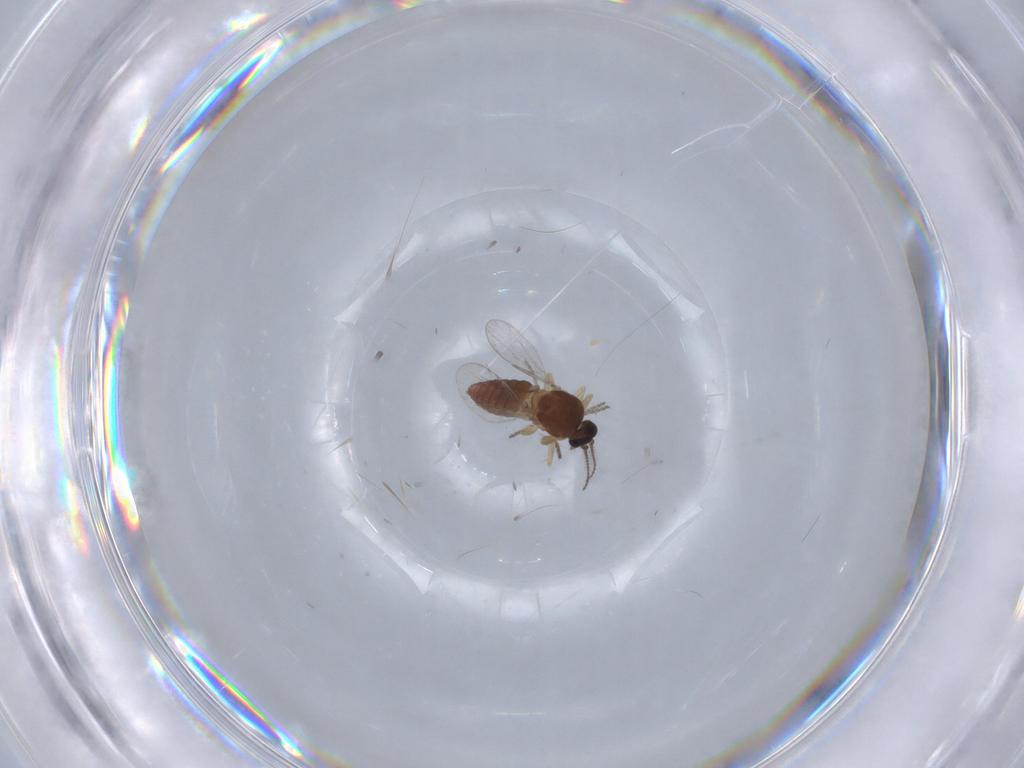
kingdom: Animalia
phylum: Arthropoda
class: Insecta
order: Diptera
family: Ceratopogonidae
